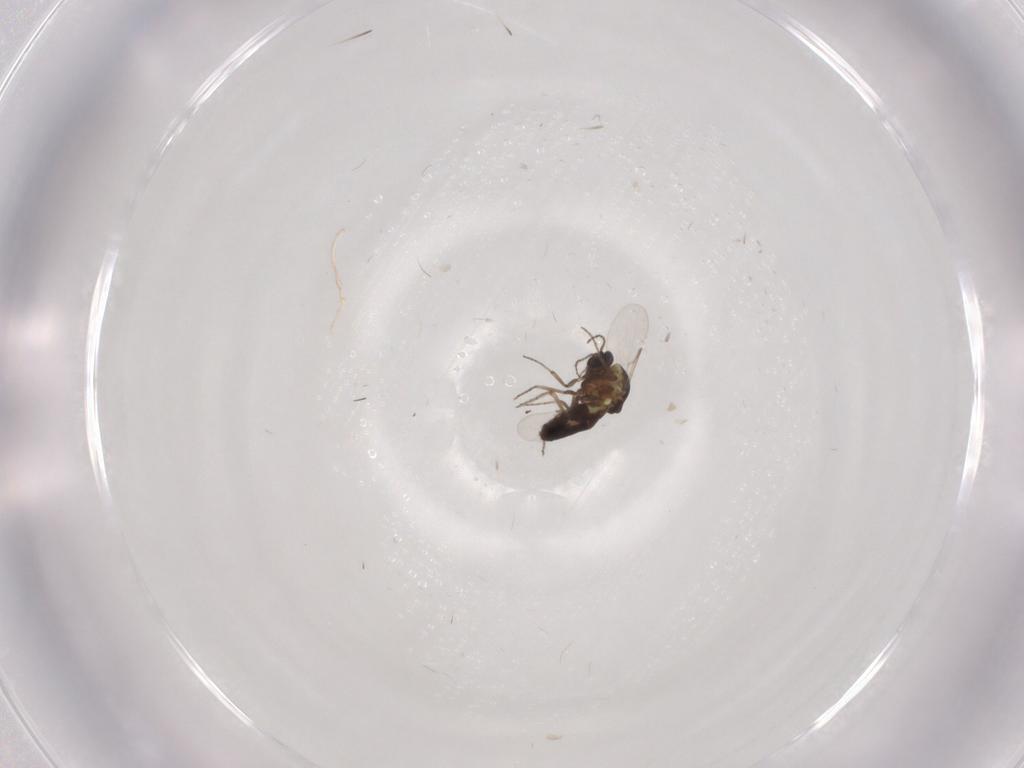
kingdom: Animalia
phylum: Arthropoda
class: Insecta
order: Diptera
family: Ceratopogonidae
